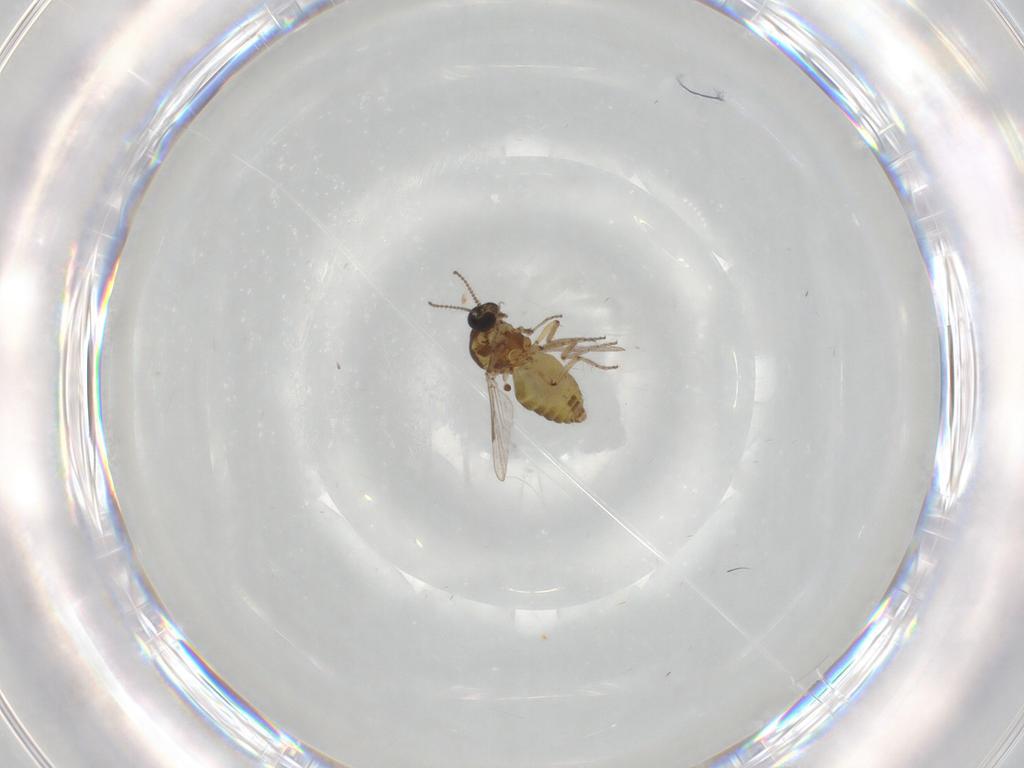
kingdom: Animalia
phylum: Arthropoda
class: Insecta
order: Diptera
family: Ceratopogonidae
